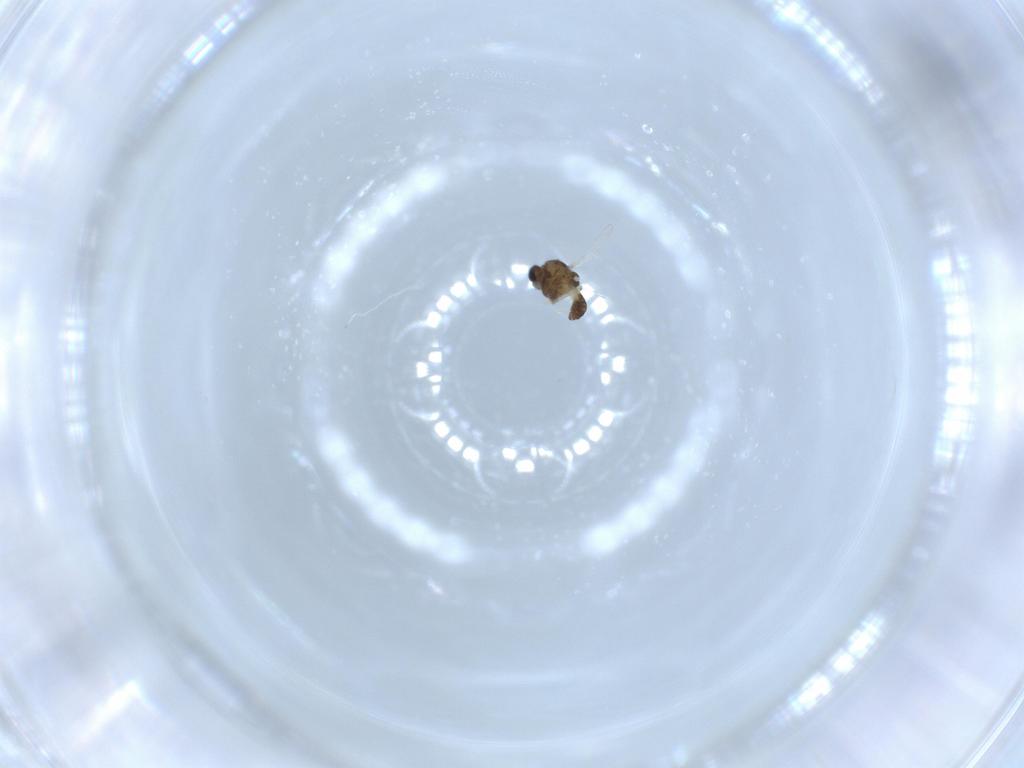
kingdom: Animalia
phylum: Arthropoda
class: Insecta
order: Diptera
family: Chironomidae
